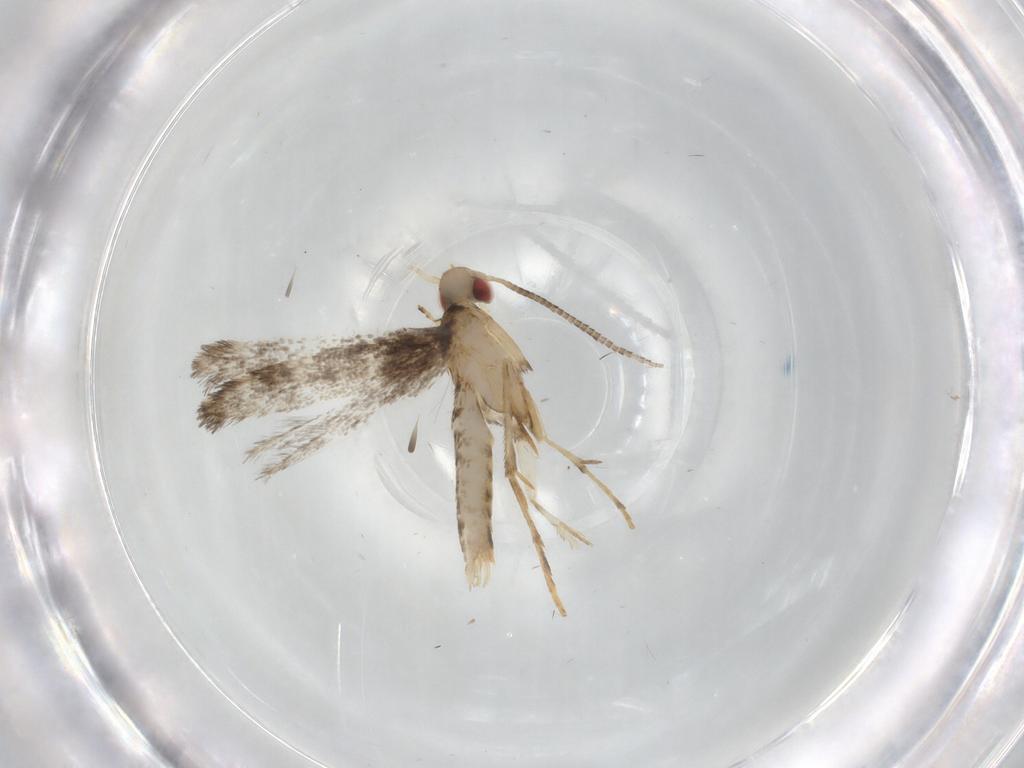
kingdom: Animalia
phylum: Arthropoda
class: Insecta
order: Lepidoptera
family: Gracillariidae
